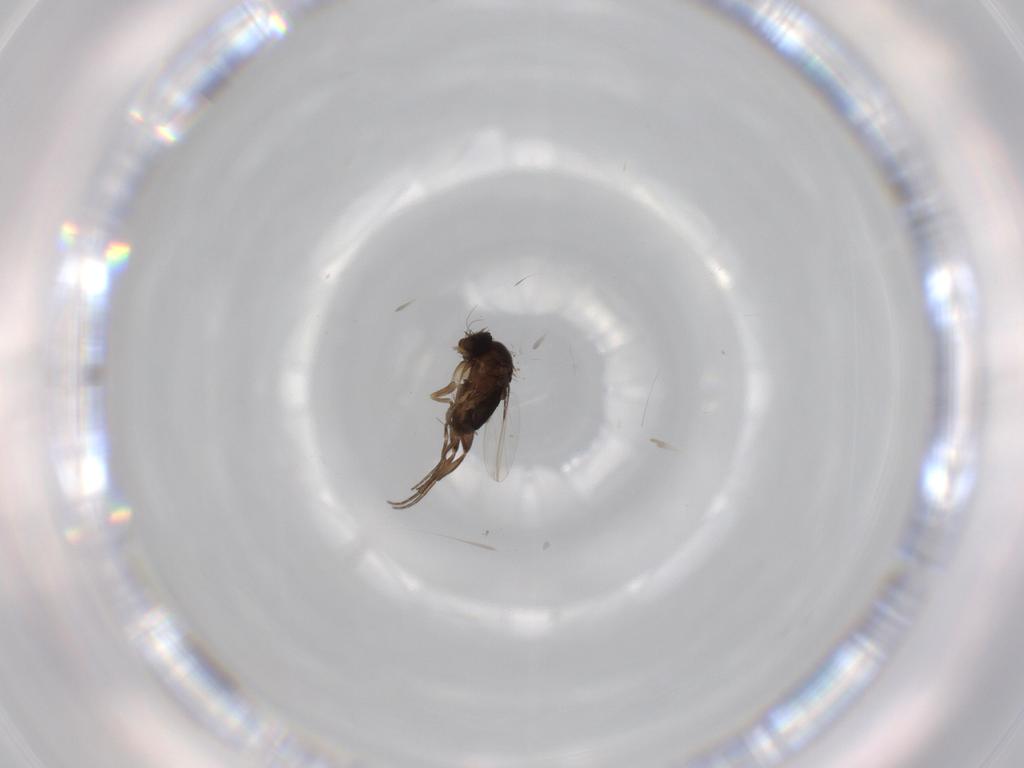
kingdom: Animalia
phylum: Arthropoda
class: Insecta
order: Diptera
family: Phoridae
